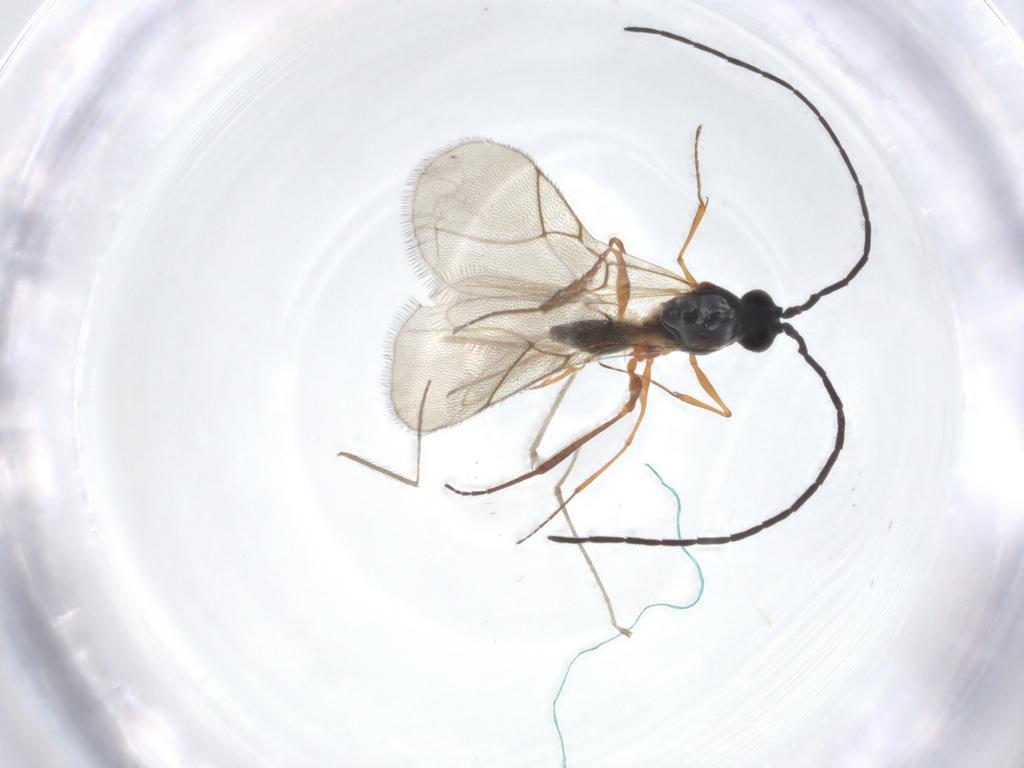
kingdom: Animalia
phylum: Arthropoda
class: Insecta
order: Hymenoptera
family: Figitidae
